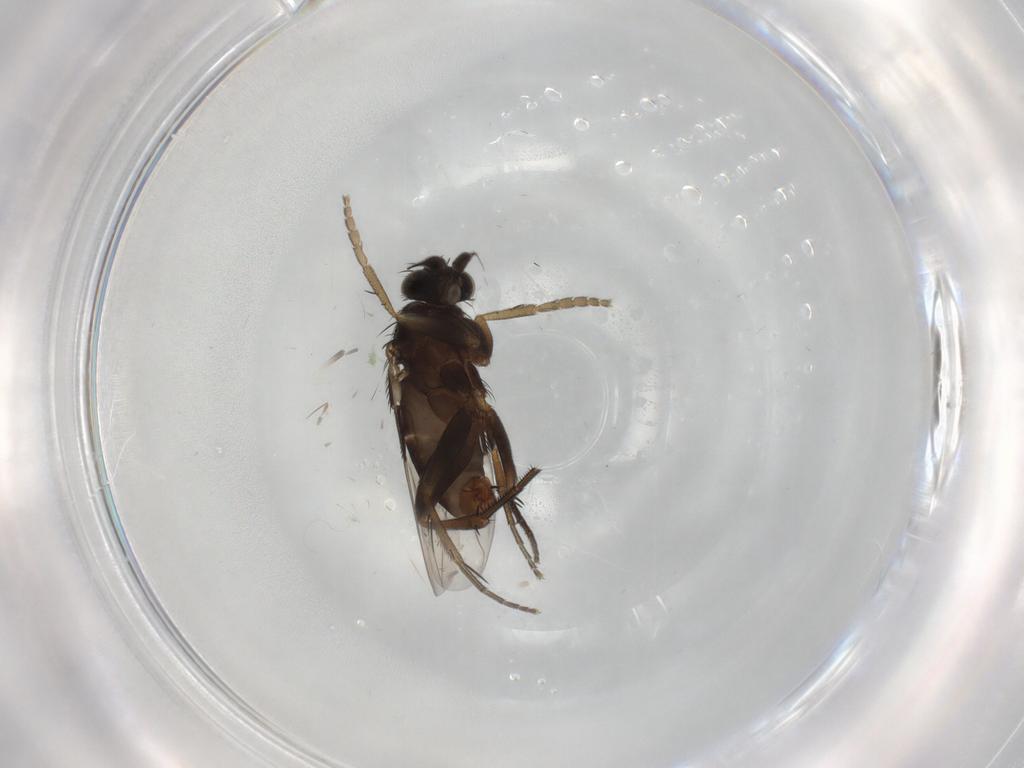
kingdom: Animalia
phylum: Arthropoda
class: Insecta
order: Diptera
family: Phoridae
